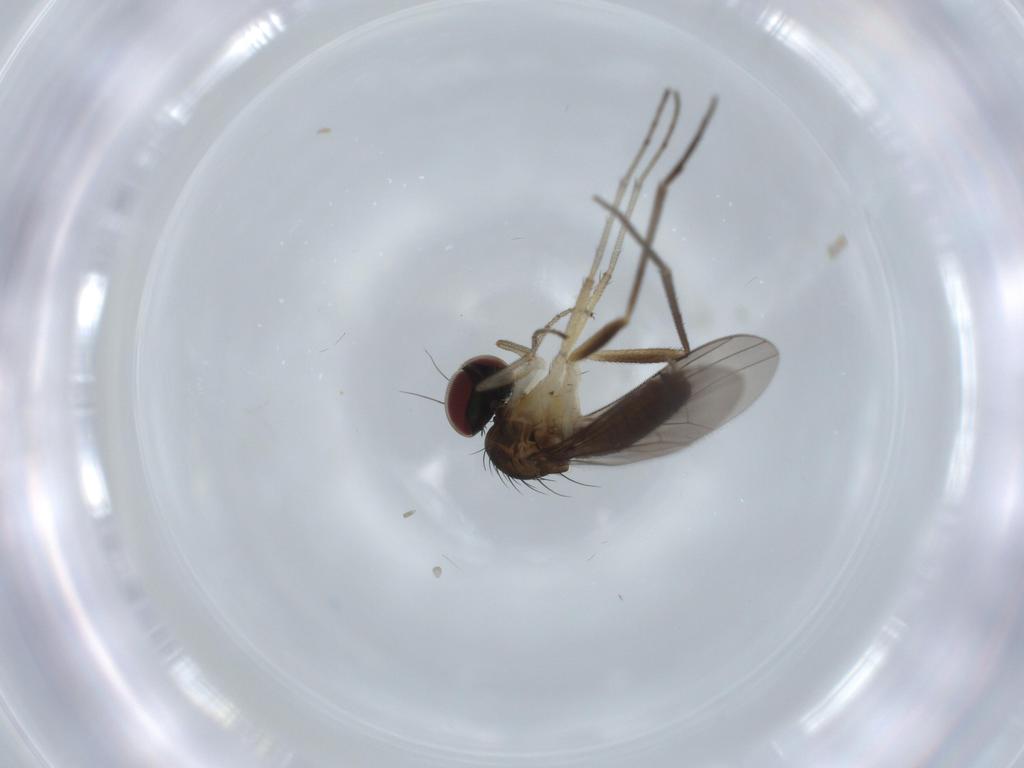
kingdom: Animalia
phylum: Arthropoda
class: Insecta
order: Diptera
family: Dolichopodidae
